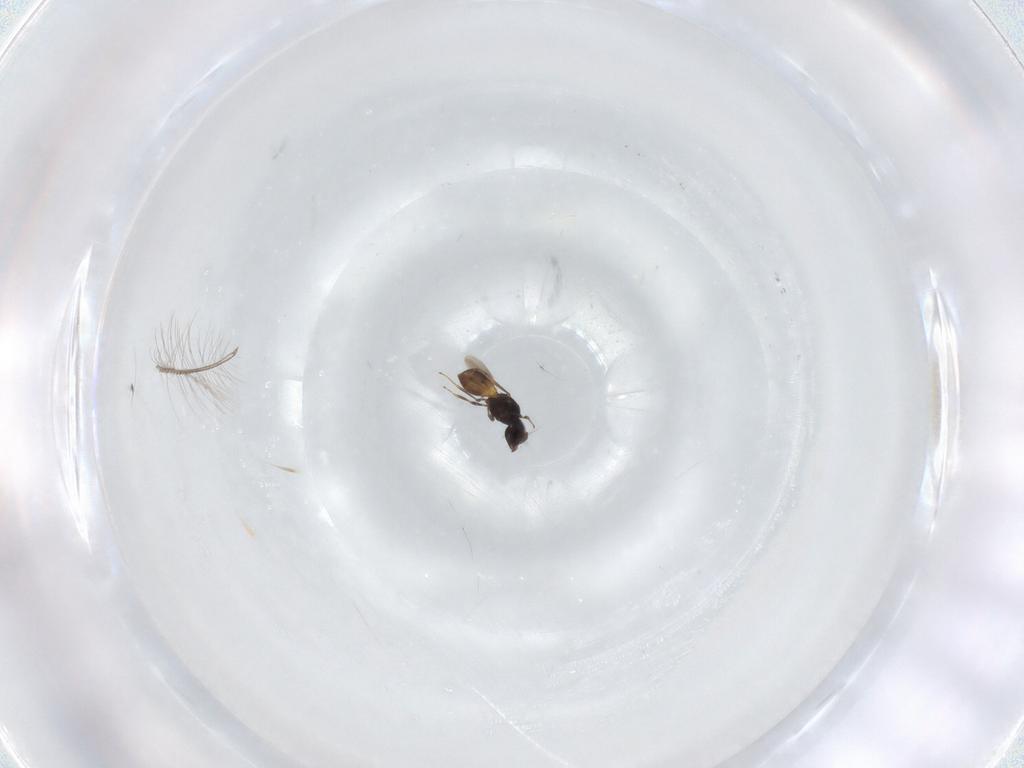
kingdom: Animalia
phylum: Arthropoda
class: Insecta
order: Hymenoptera
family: Scelionidae
